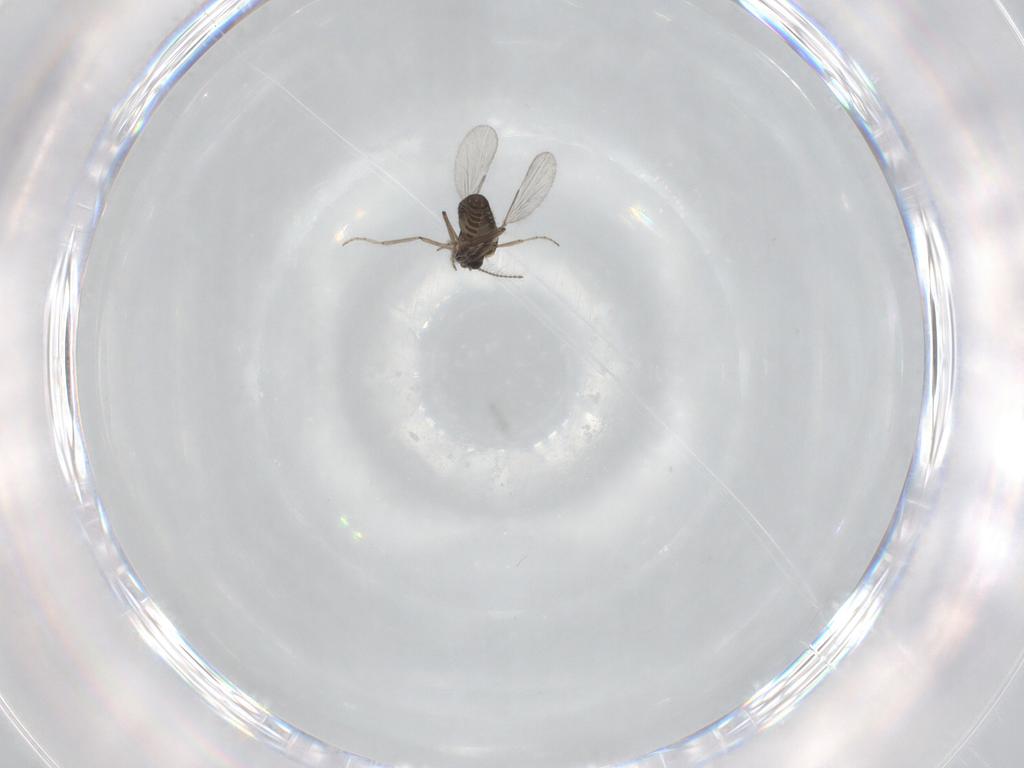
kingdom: Animalia
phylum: Arthropoda
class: Insecta
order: Diptera
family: Ceratopogonidae
